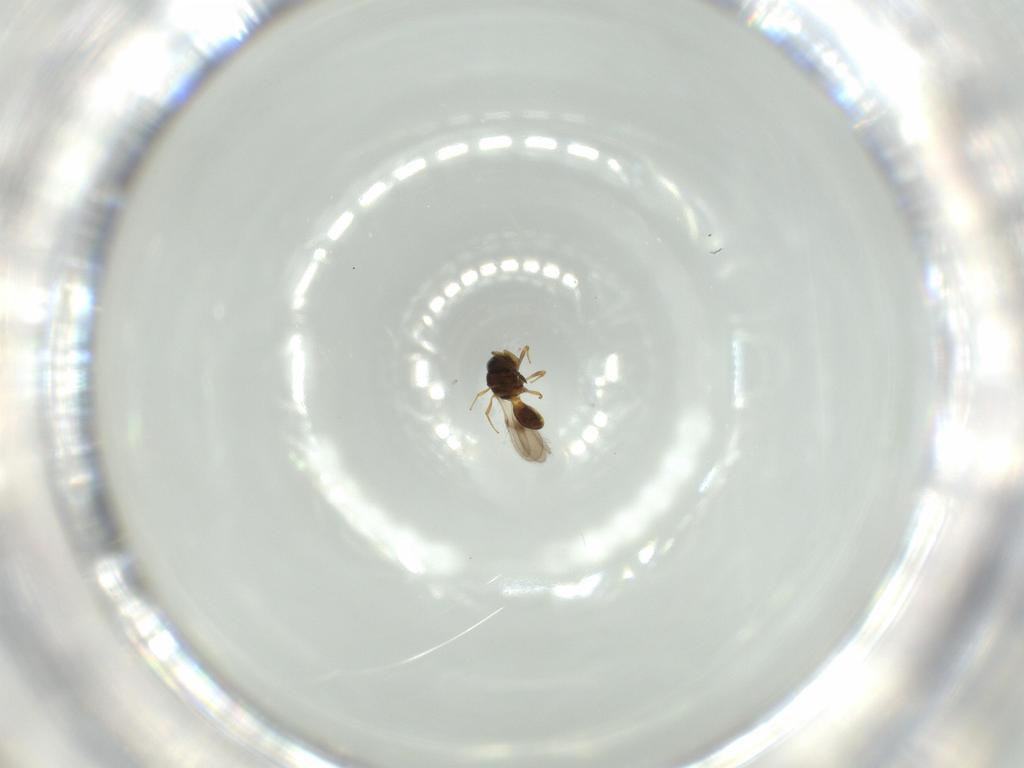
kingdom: Animalia
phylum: Arthropoda
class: Insecta
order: Hymenoptera
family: Scelionidae
